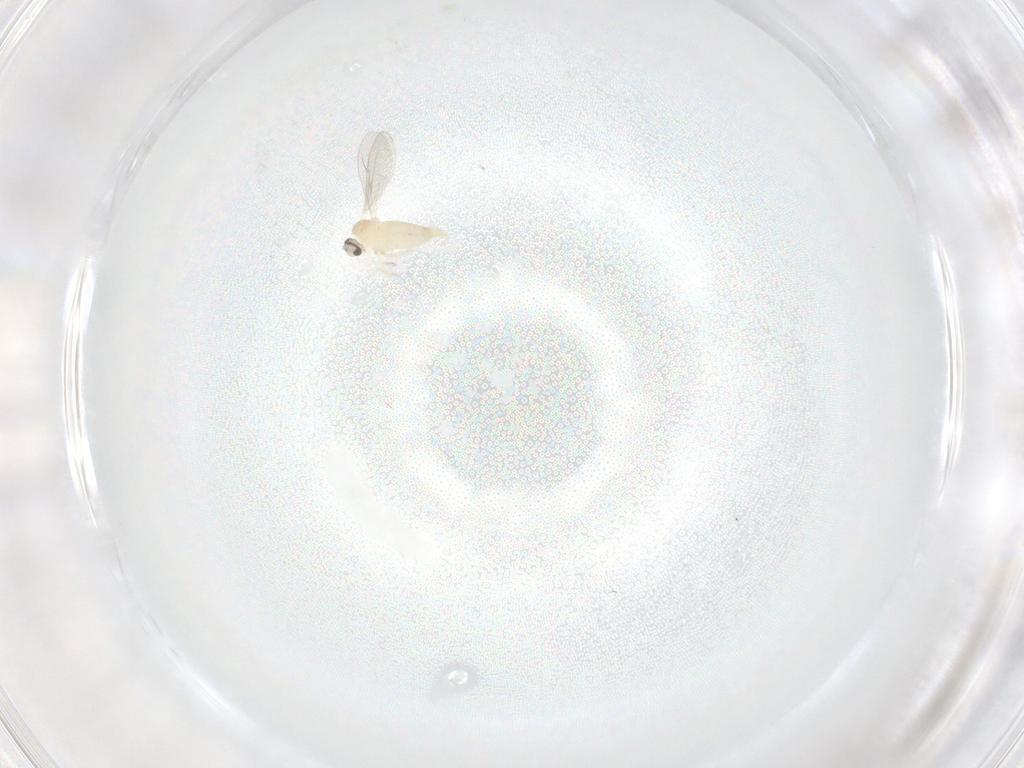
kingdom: Animalia
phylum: Arthropoda
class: Insecta
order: Diptera
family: Cecidomyiidae
